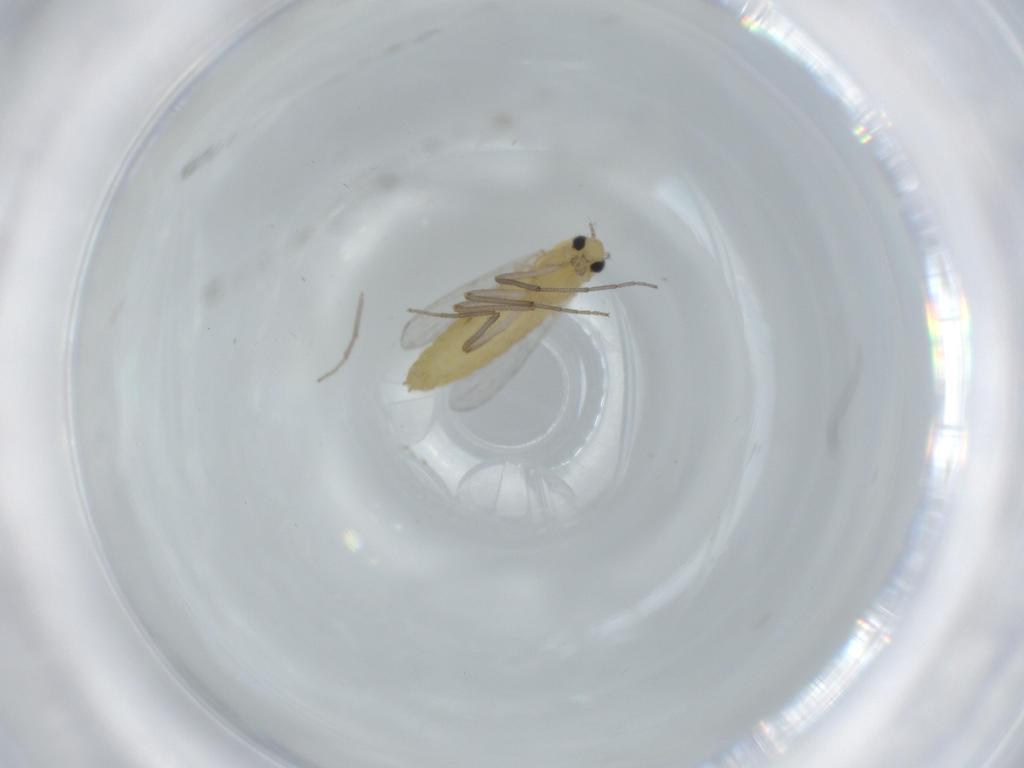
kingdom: Animalia
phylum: Arthropoda
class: Insecta
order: Diptera
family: Chironomidae
